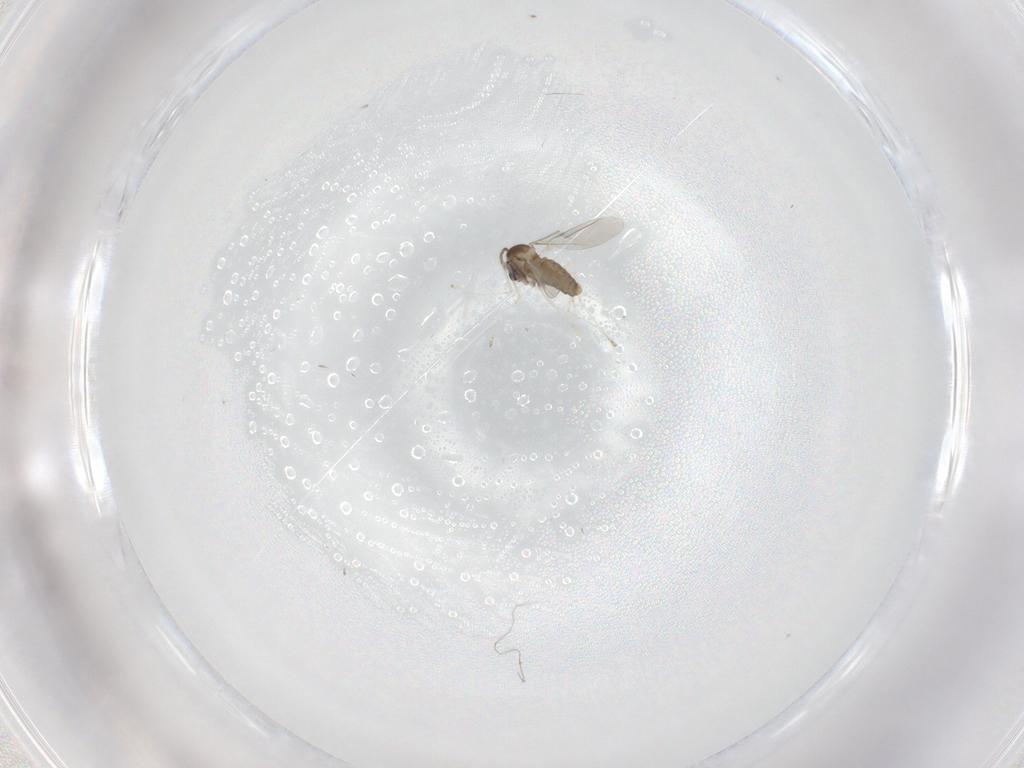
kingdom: Animalia
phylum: Arthropoda
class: Insecta
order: Diptera
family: Cecidomyiidae
